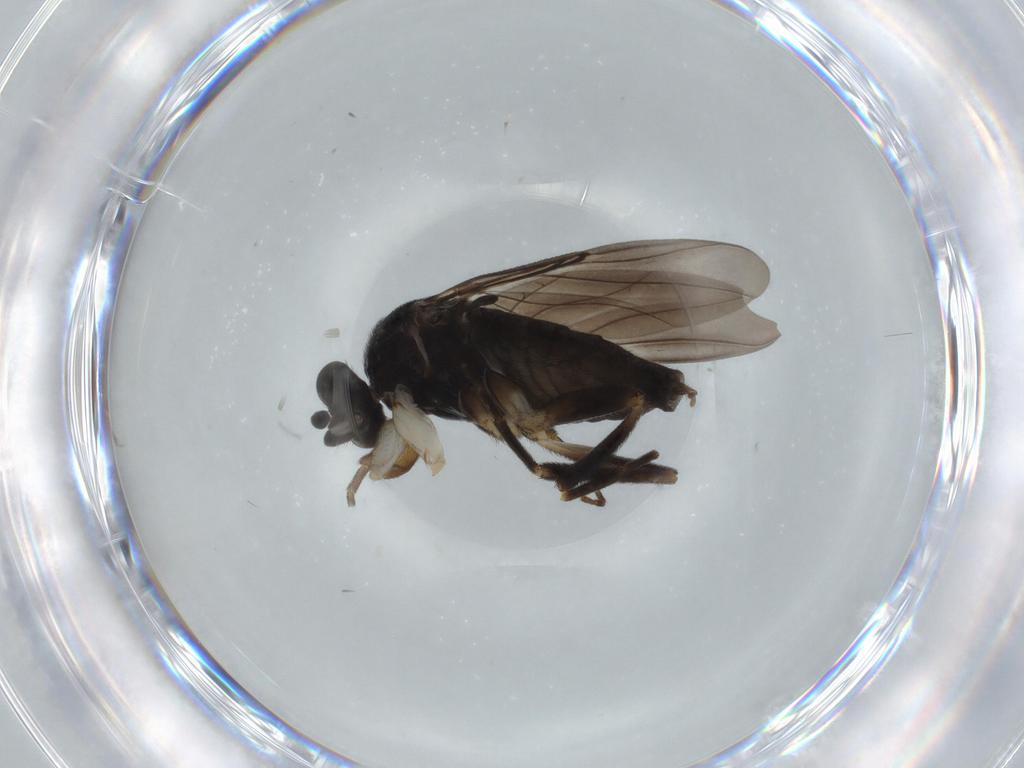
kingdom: Animalia
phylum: Arthropoda
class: Insecta
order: Diptera
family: Phoridae
